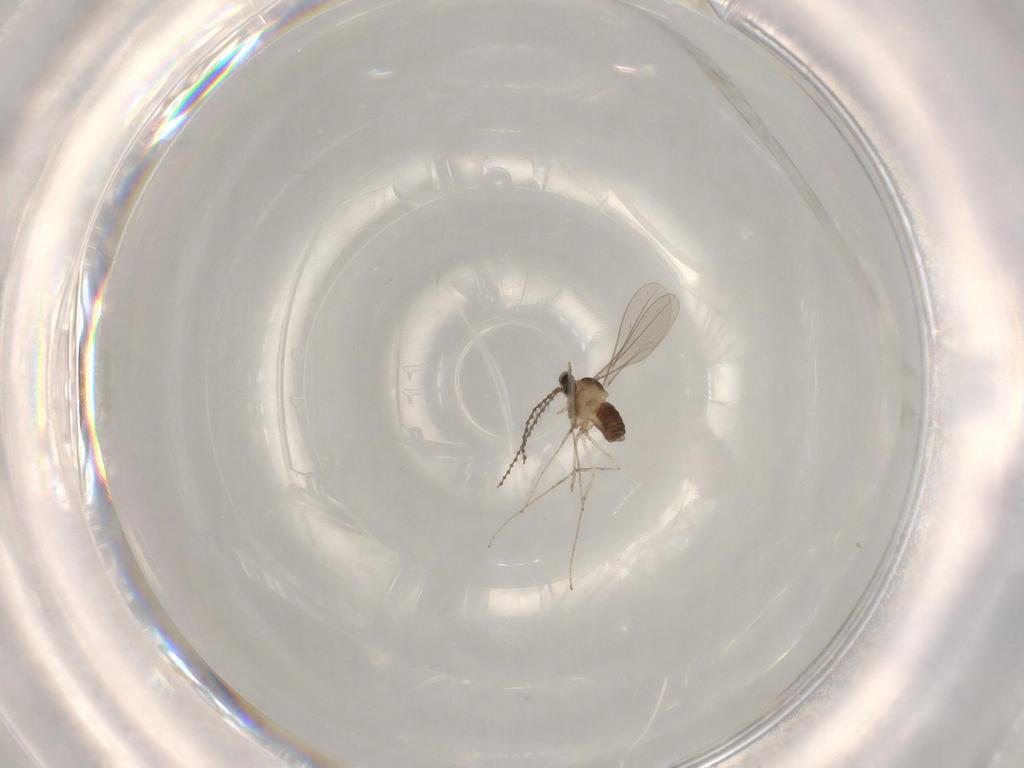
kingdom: Animalia
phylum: Arthropoda
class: Insecta
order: Diptera
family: Cecidomyiidae
